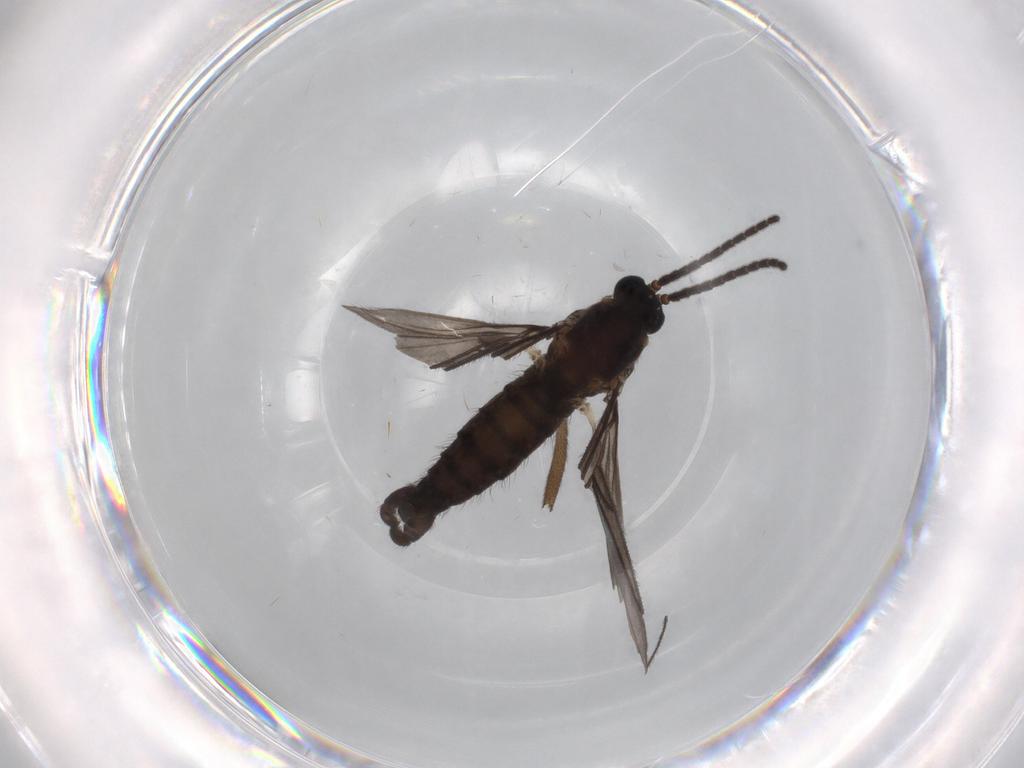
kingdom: Animalia
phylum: Arthropoda
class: Insecta
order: Diptera
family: Sciaridae
